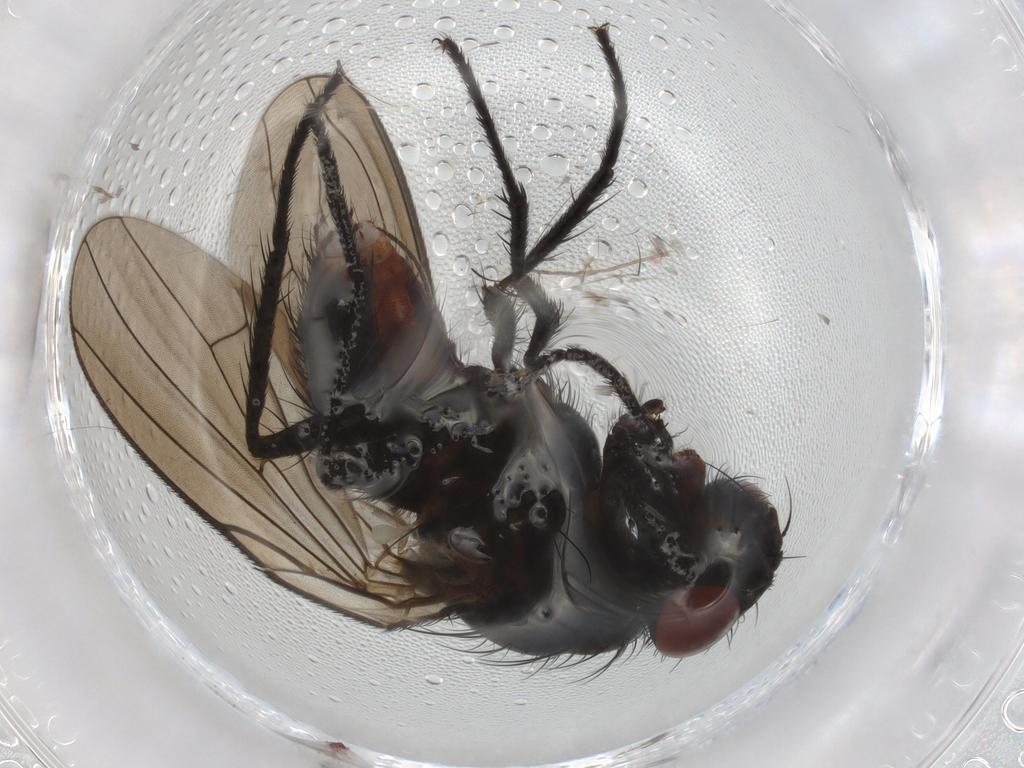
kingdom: Animalia
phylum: Arthropoda
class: Insecta
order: Diptera
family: Anthomyiidae
